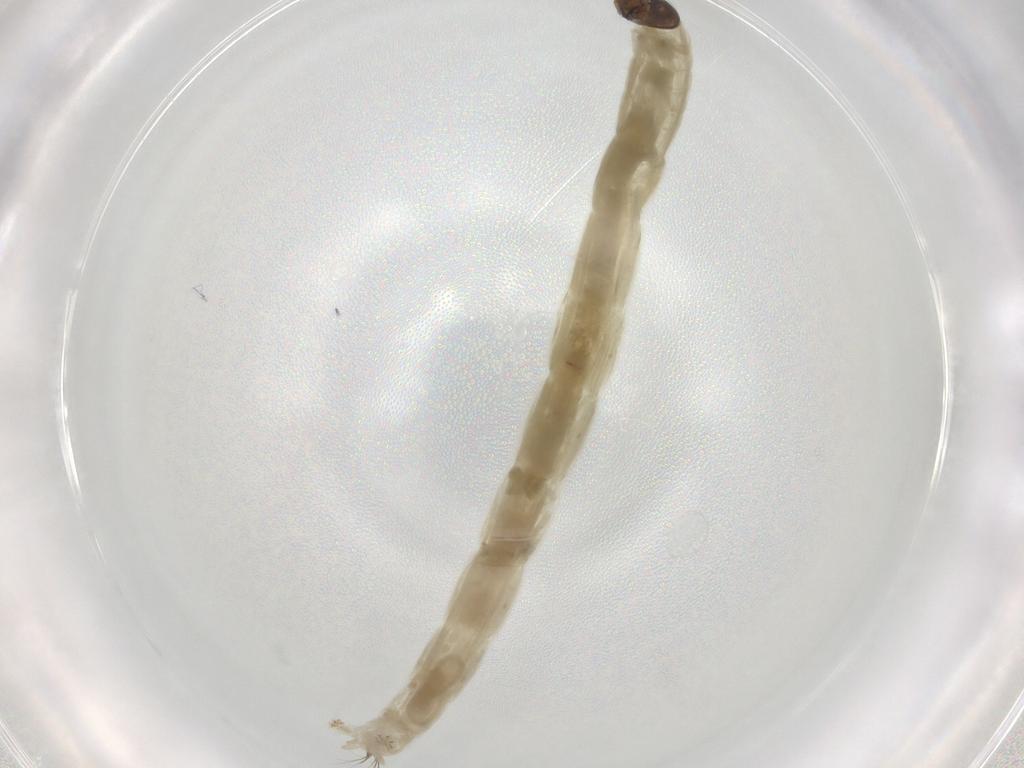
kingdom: Animalia
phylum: Arthropoda
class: Insecta
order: Diptera
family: Chironomidae
